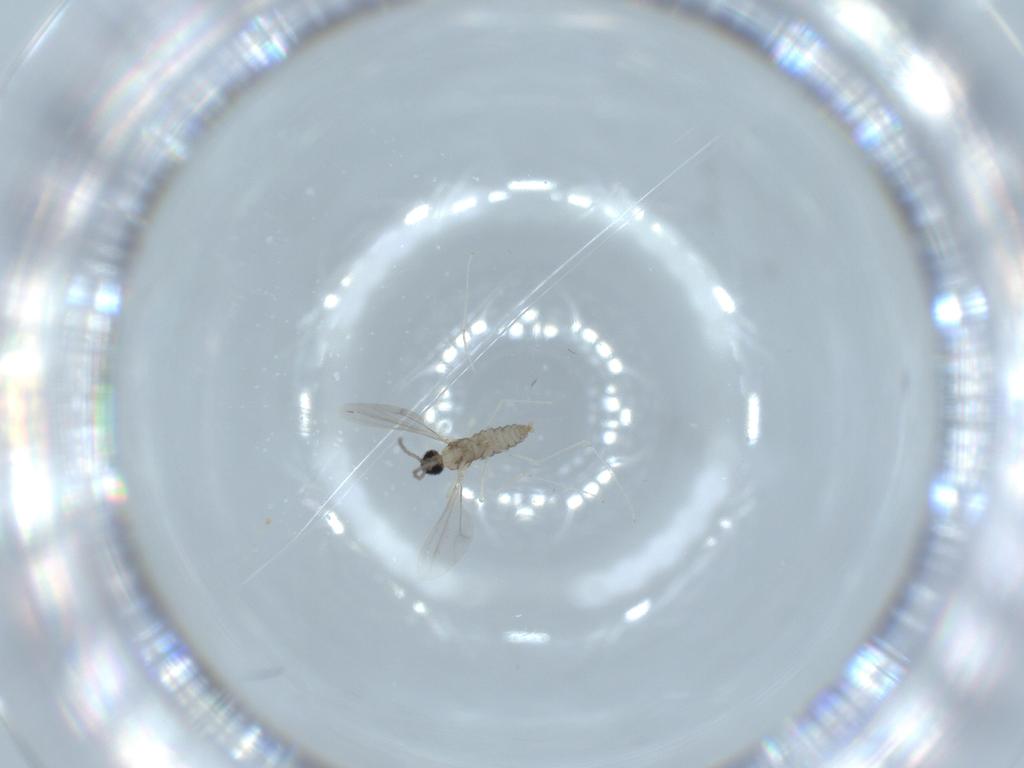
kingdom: Animalia
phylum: Arthropoda
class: Insecta
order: Diptera
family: Cecidomyiidae
